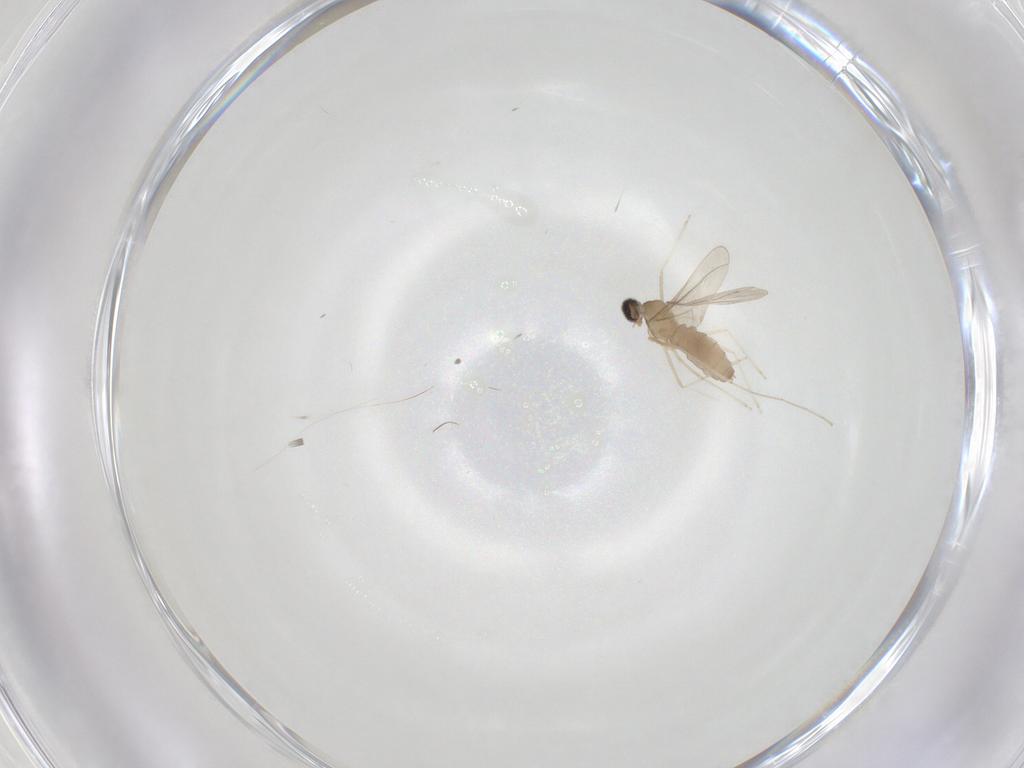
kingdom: Animalia
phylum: Arthropoda
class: Insecta
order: Diptera
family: Cecidomyiidae
